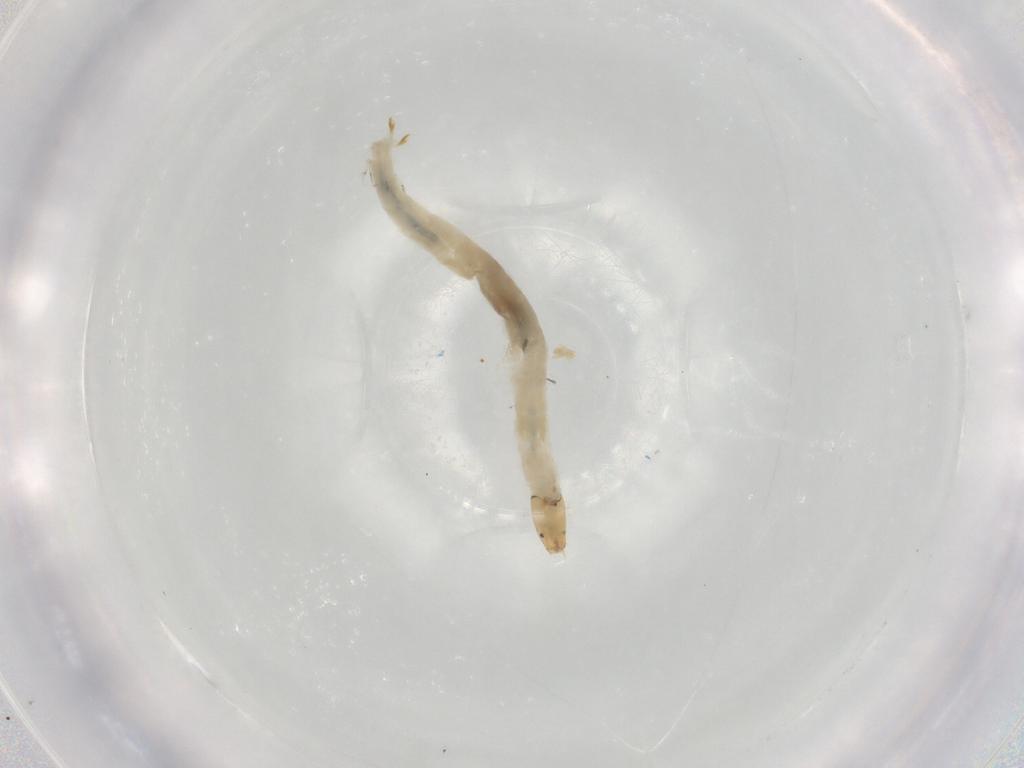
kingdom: Animalia
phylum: Arthropoda
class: Insecta
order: Diptera
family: Chironomidae
